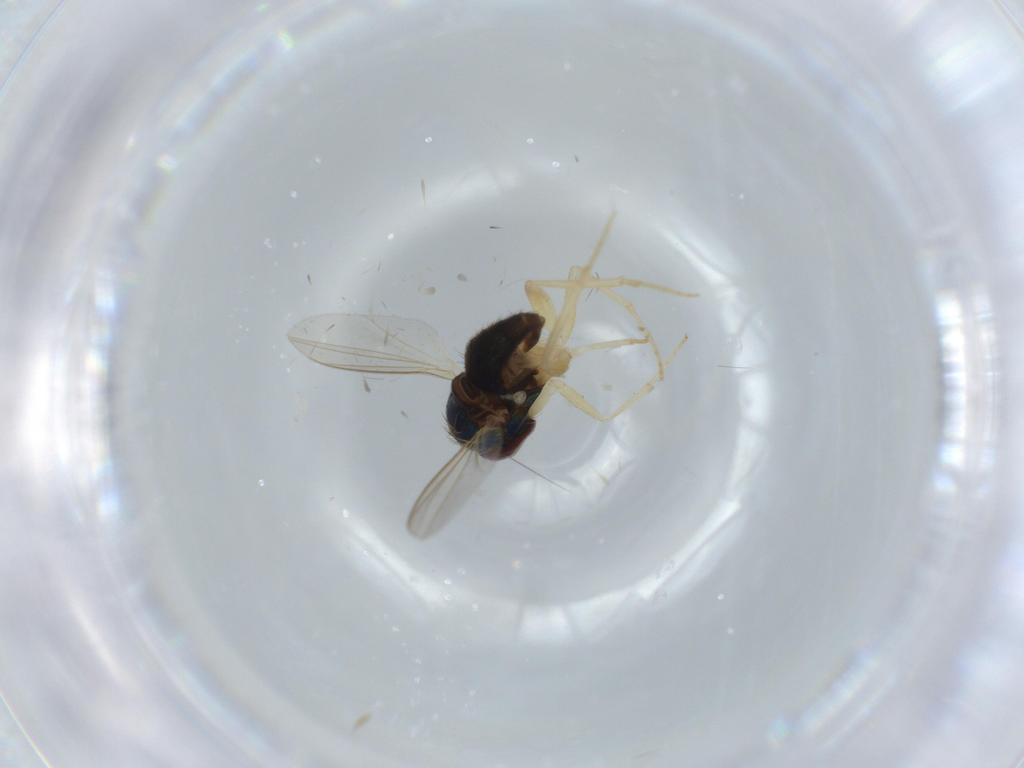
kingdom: Animalia
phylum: Arthropoda
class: Insecta
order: Diptera
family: Dolichopodidae
